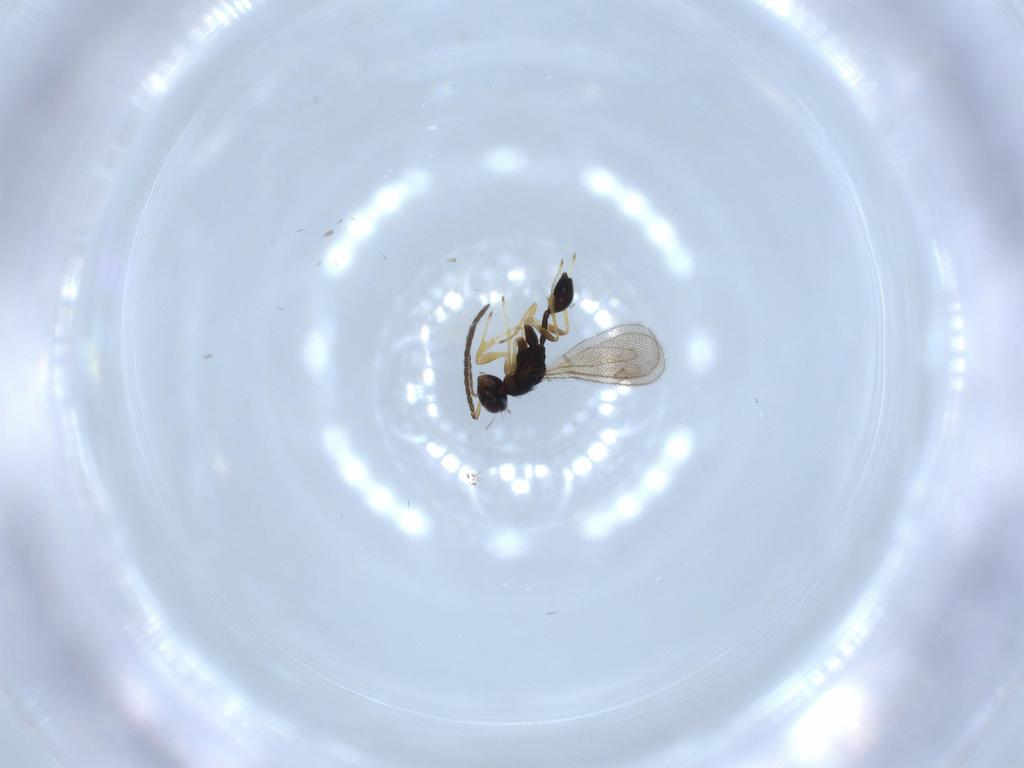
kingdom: Animalia
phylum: Arthropoda
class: Insecta
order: Hymenoptera
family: Diparidae
